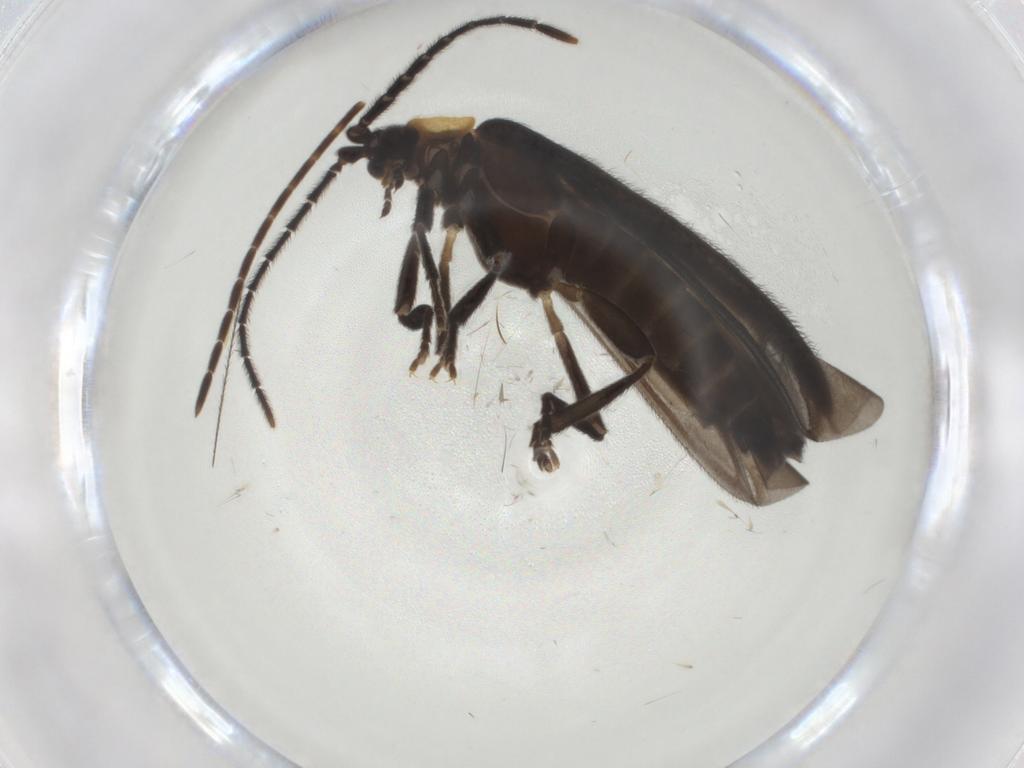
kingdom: Animalia
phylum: Arthropoda
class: Insecta
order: Coleoptera
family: Lycidae
